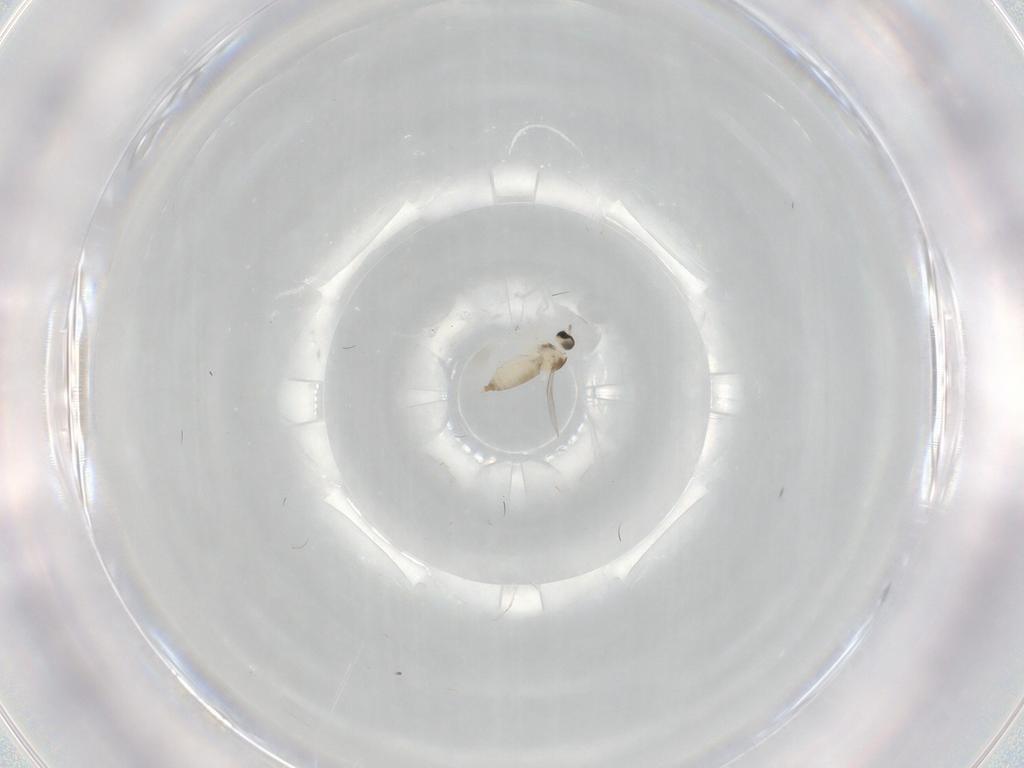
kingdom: Animalia
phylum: Arthropoda
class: Insecta
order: Diptera
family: Cecidomyiidae
